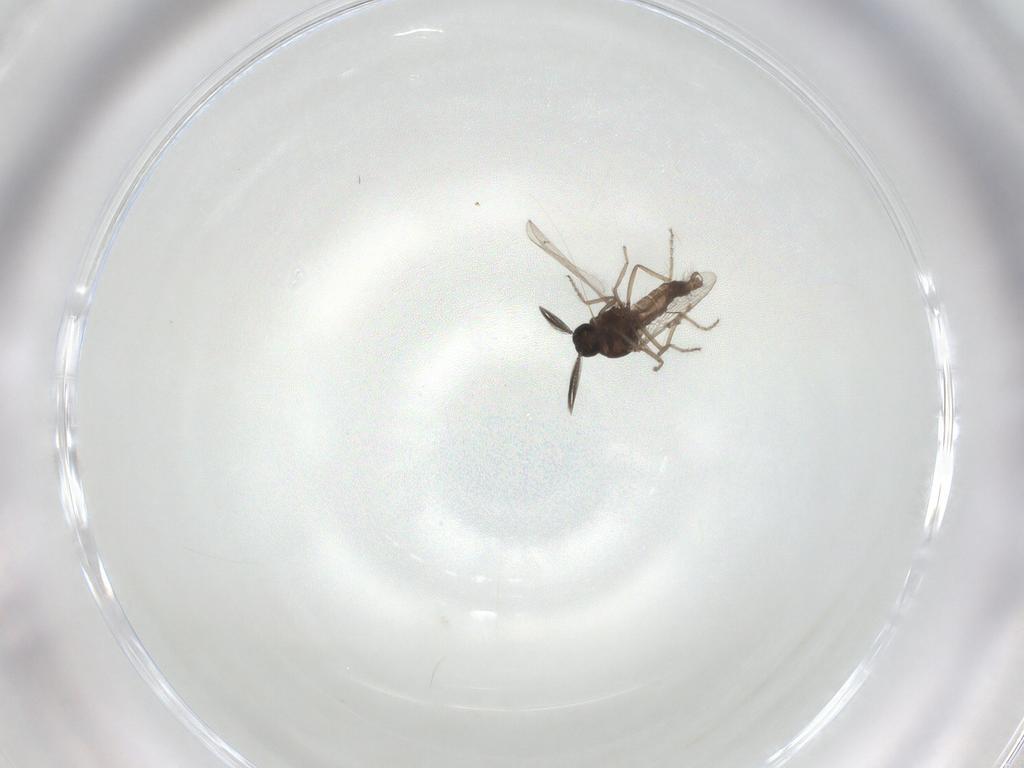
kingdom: Animalia
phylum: Arthropoda
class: Insecta
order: Diptera
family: Ceratopogonidae
